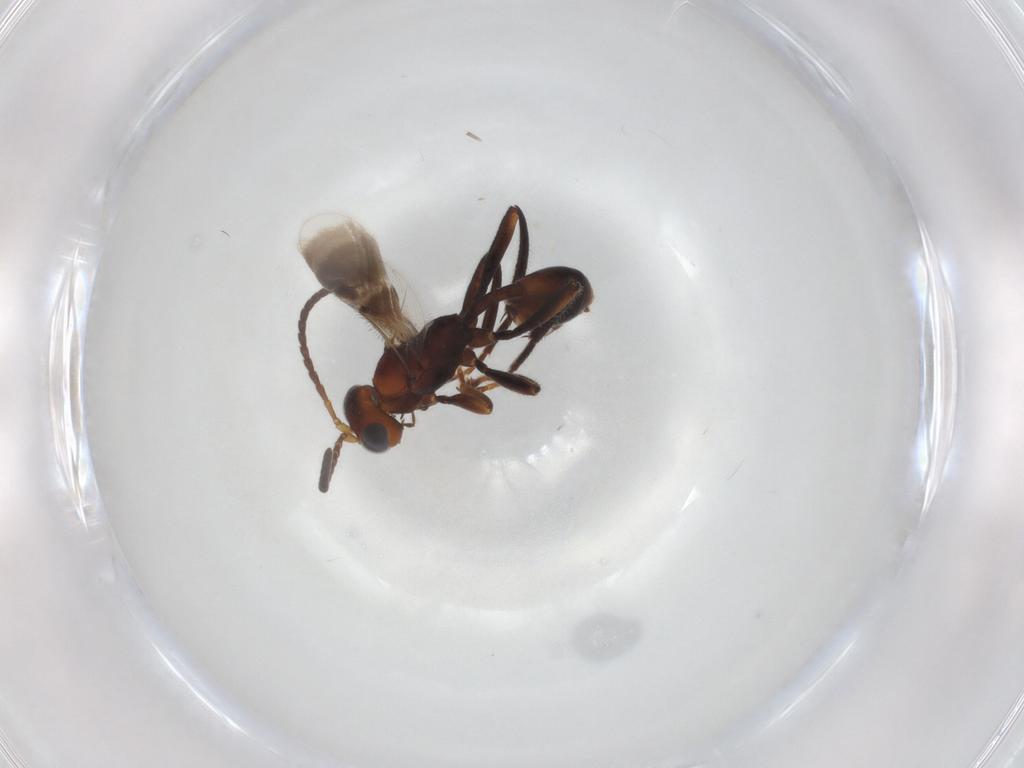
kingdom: Animalia
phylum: Arthropoda
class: Insecta
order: Hymenoptera
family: Braconidae
